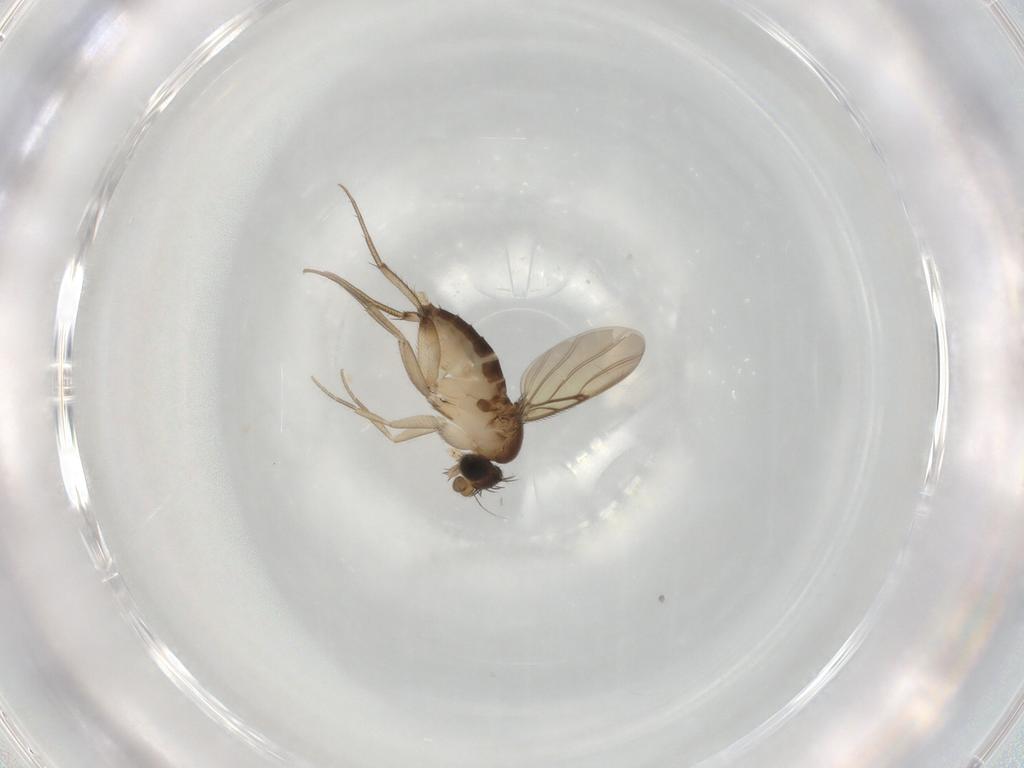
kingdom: Animalia
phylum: Arthropoda
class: Insecta
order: Diptera
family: Phoridae
